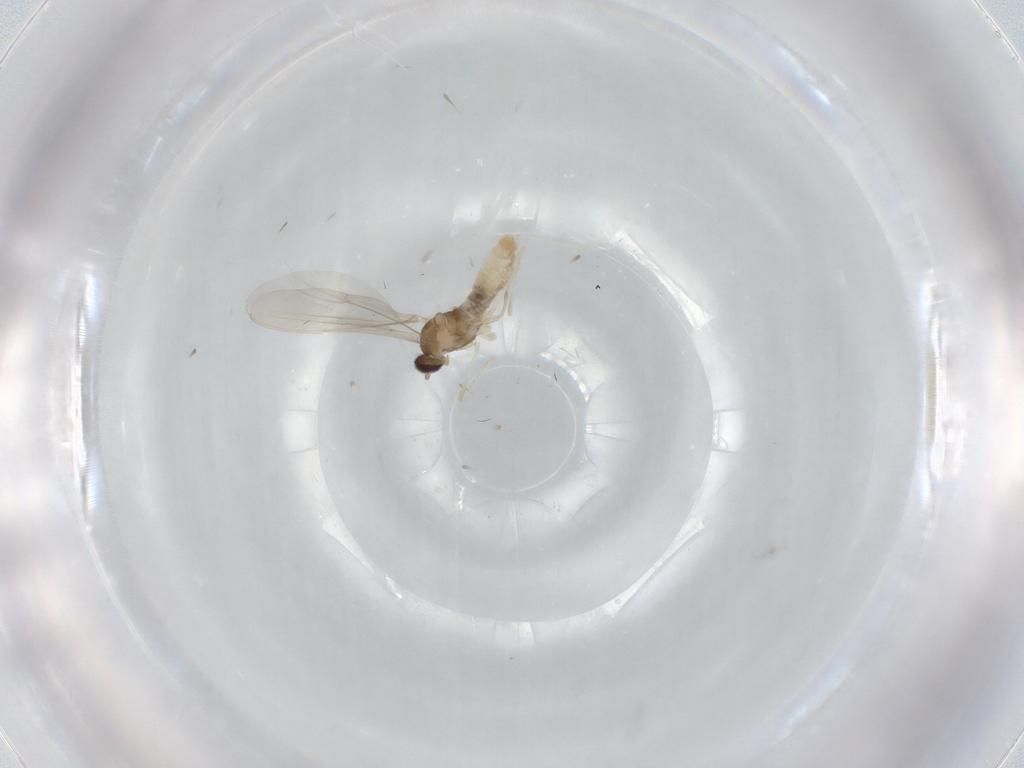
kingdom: Animalia
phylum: Arthropoda
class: Insecta
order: Diptera
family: Cecidomyiidae
